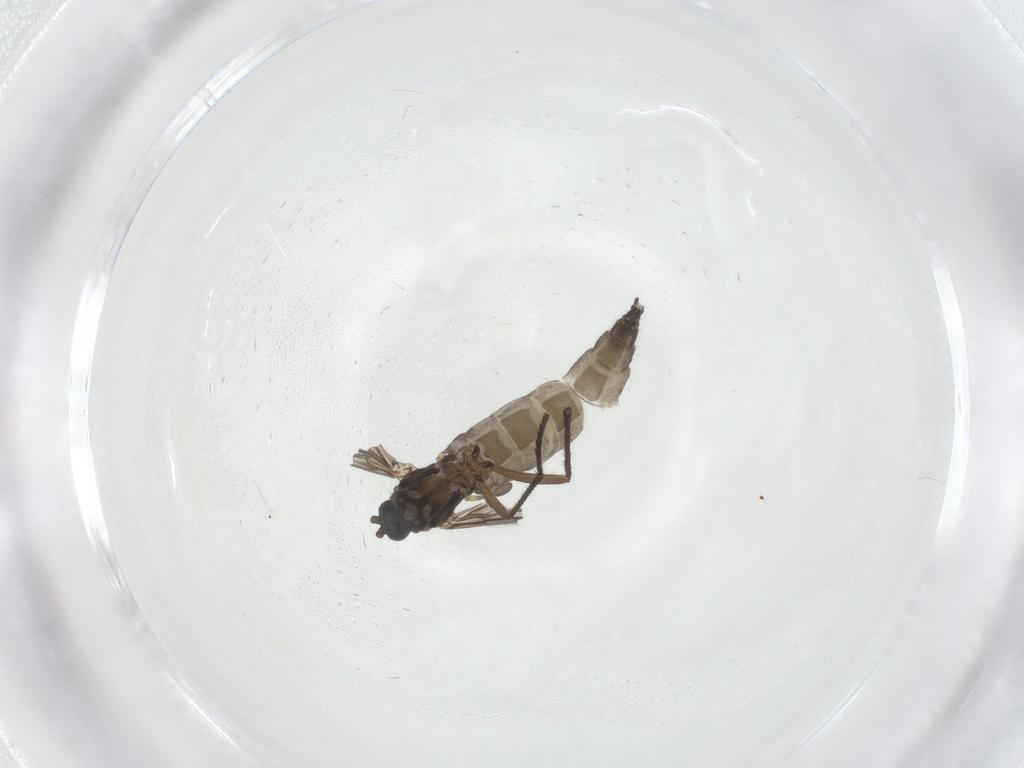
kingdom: Animalia
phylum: Arthropoda
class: Insecta
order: Diptera
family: Sciaridae
